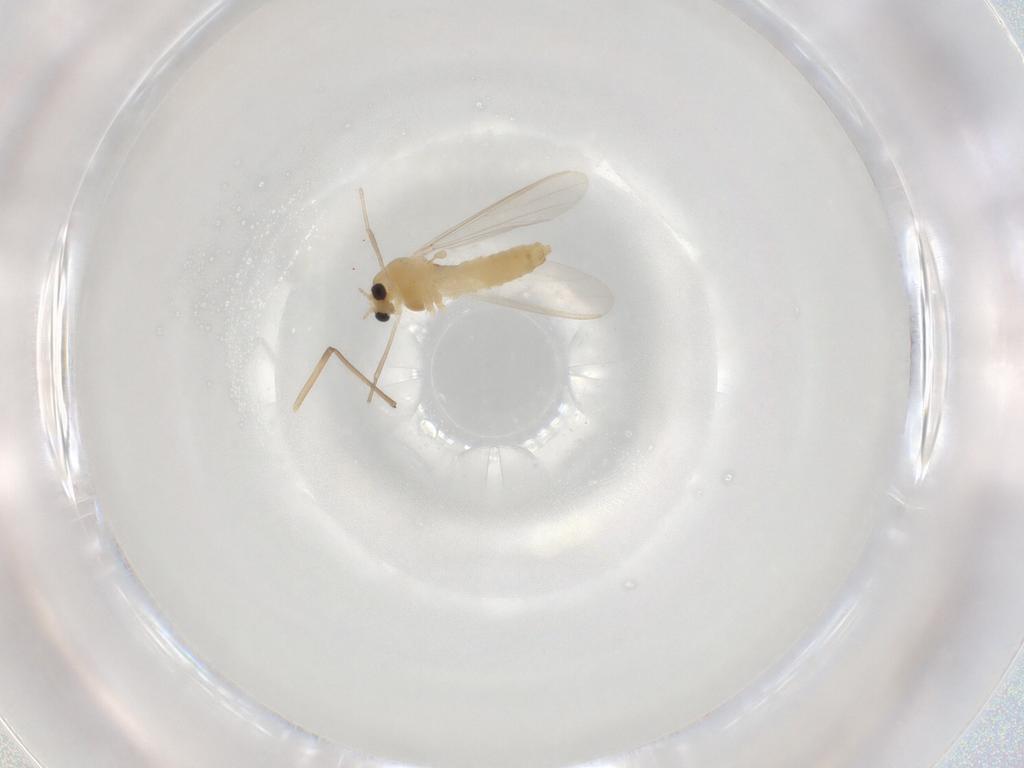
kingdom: Animalia
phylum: Arthropoda
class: Insecta
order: Diptera
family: Chironomidae
